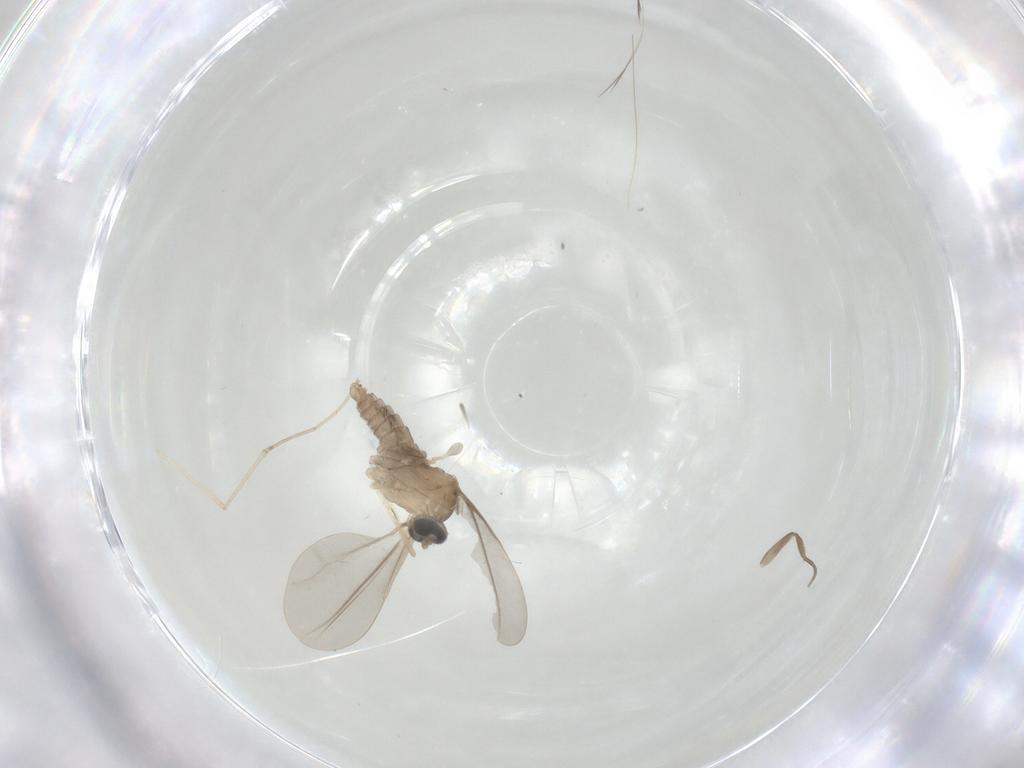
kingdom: Animalia
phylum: Arthropoda
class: Insecta
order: Diptera
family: Phoridae
